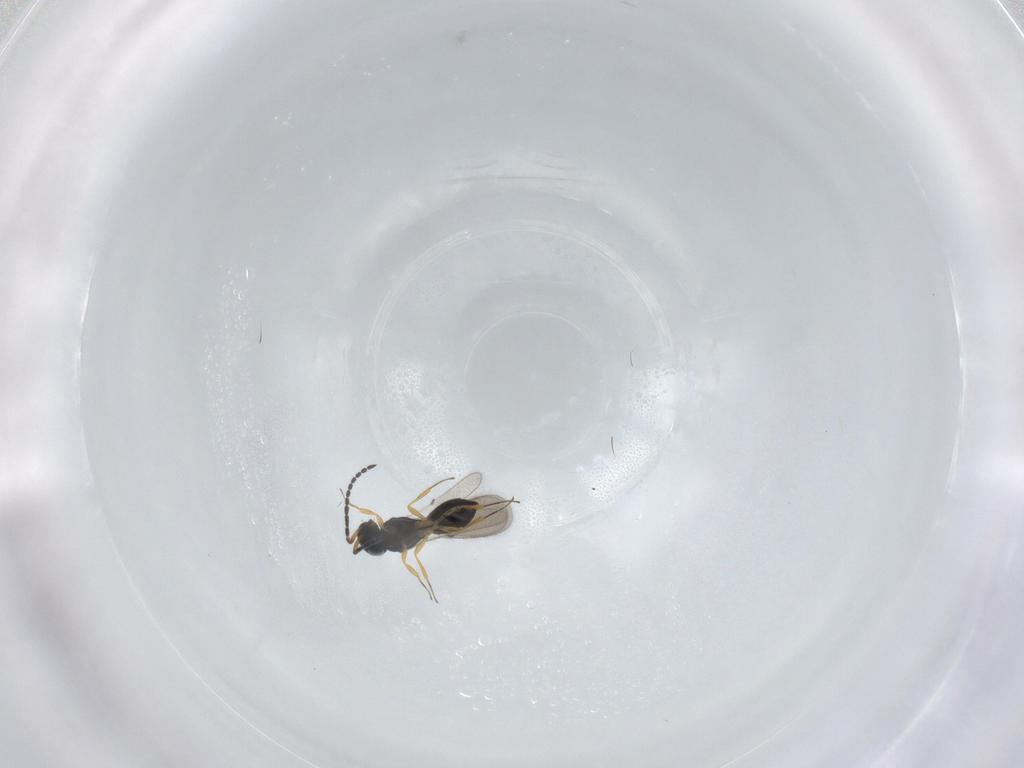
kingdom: Animalia
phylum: Arthropoda
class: Insecta
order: Hymenoptera
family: Scelionidae
